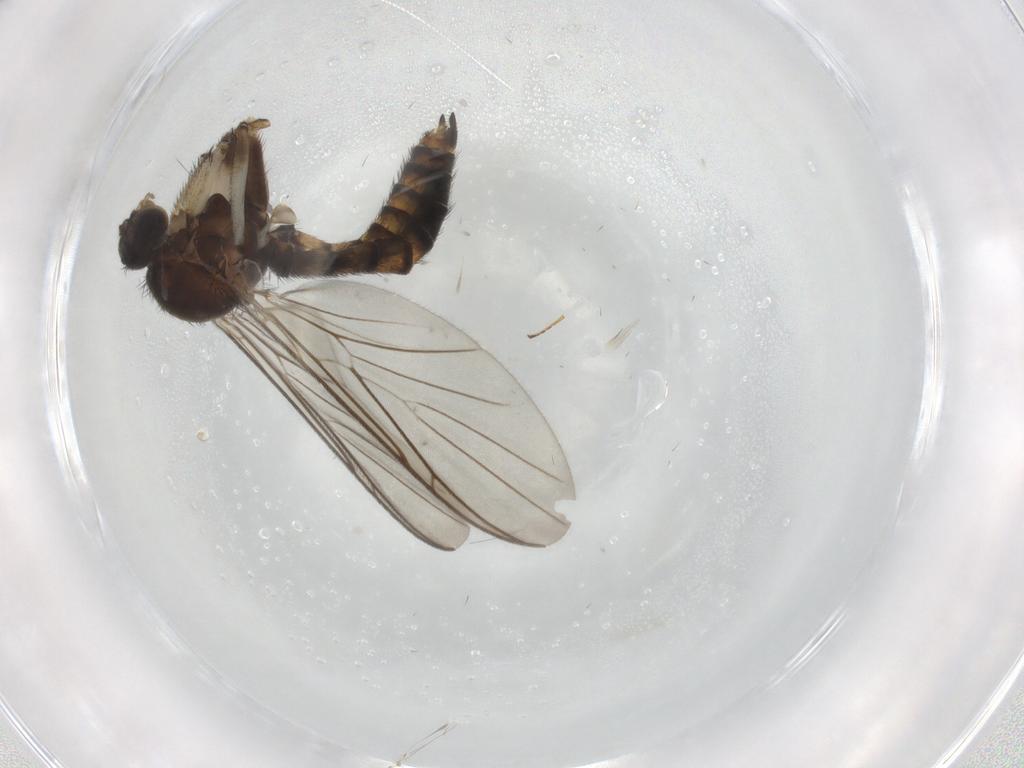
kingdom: Animalia
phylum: Arthropoda
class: Insecta
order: Diptera
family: Keroplatidae
